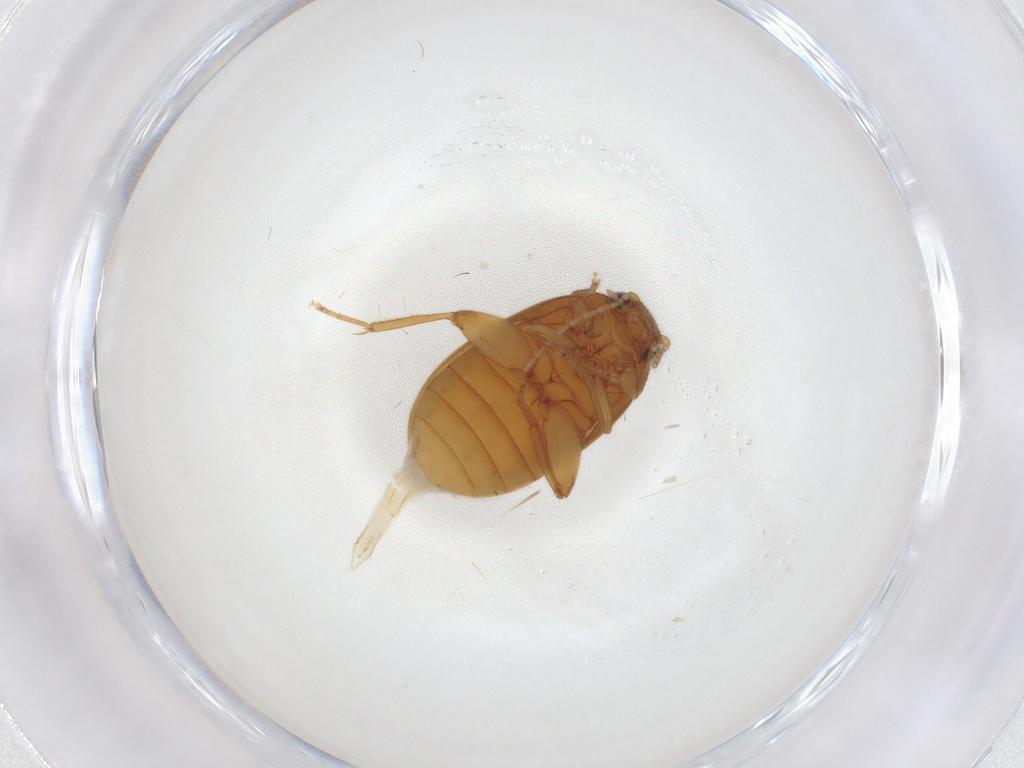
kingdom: Animalia
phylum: Arthropoda
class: Insecta
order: Coleoptera
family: Scirtidae
